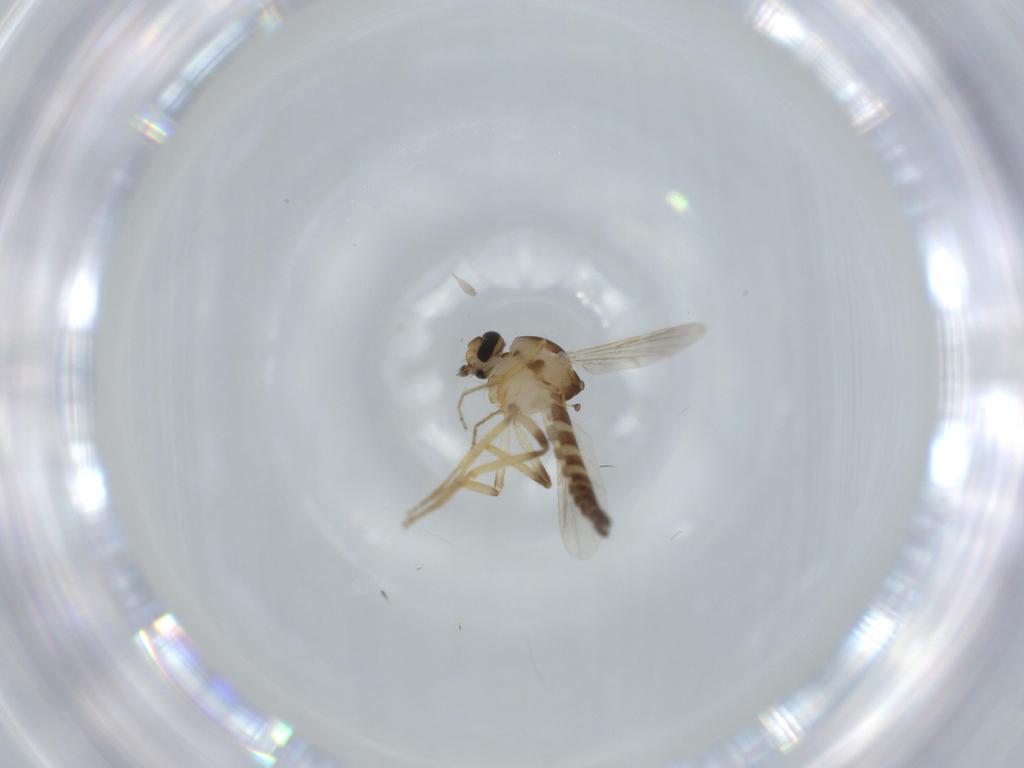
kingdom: Animalia
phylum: Arthropoda
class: Insecta
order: Diptera
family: Ceratopogonidae
